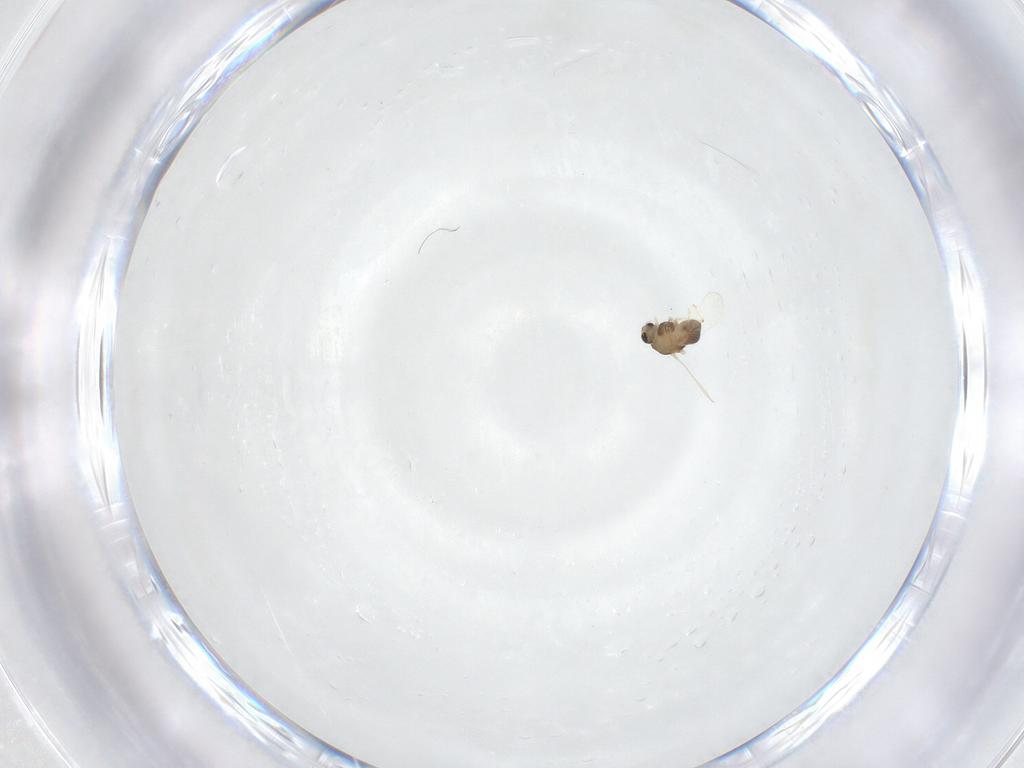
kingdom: Animalia
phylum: Arthropoda
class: Insecta
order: Diptera
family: Chironomidae
